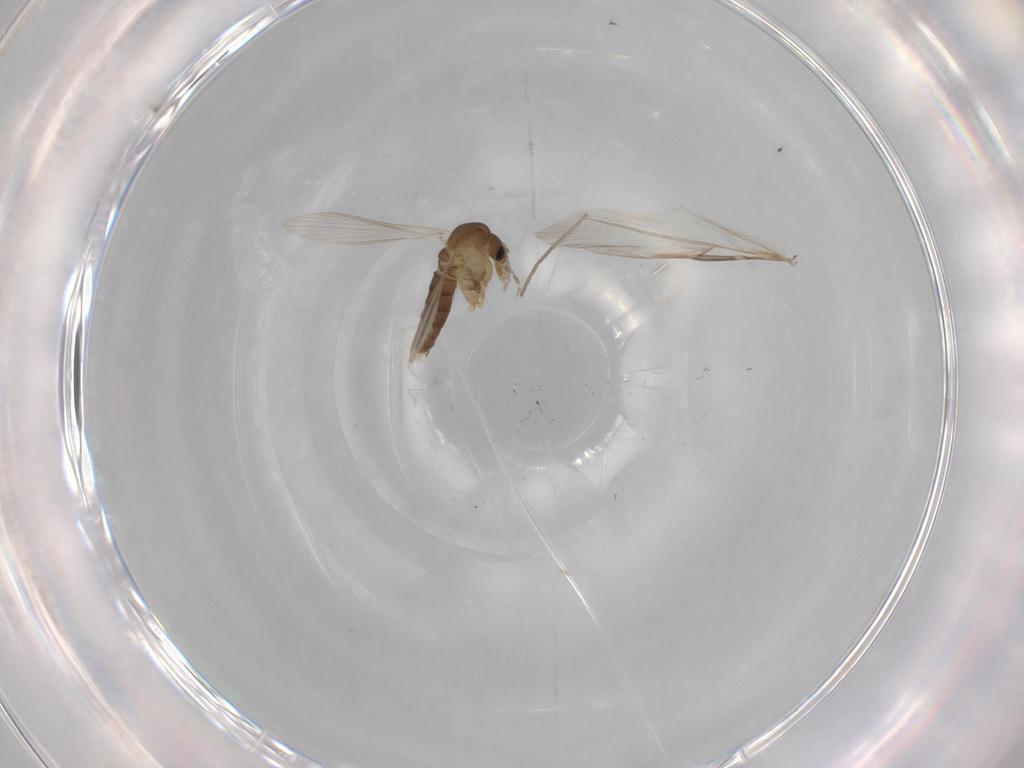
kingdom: Animalia
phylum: Arthropoda
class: Insecta
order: Diptera
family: Psychodidae
